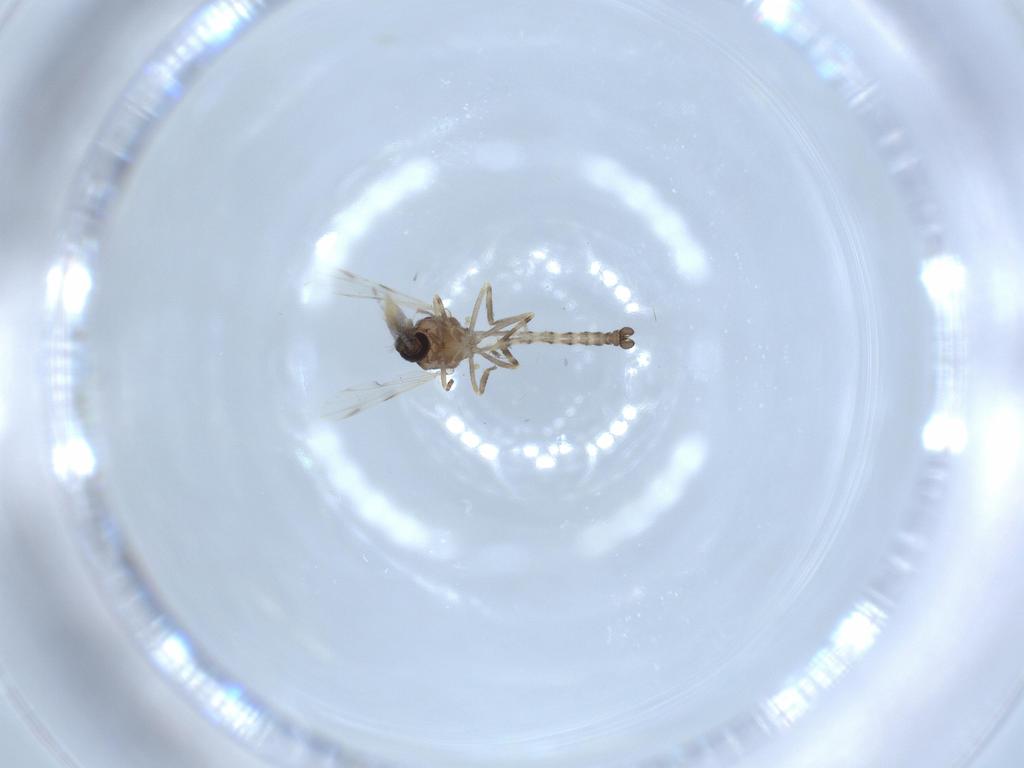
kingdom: Animalia
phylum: Arthropoda
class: Insecta
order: Diptera
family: Ceratopogonidae
